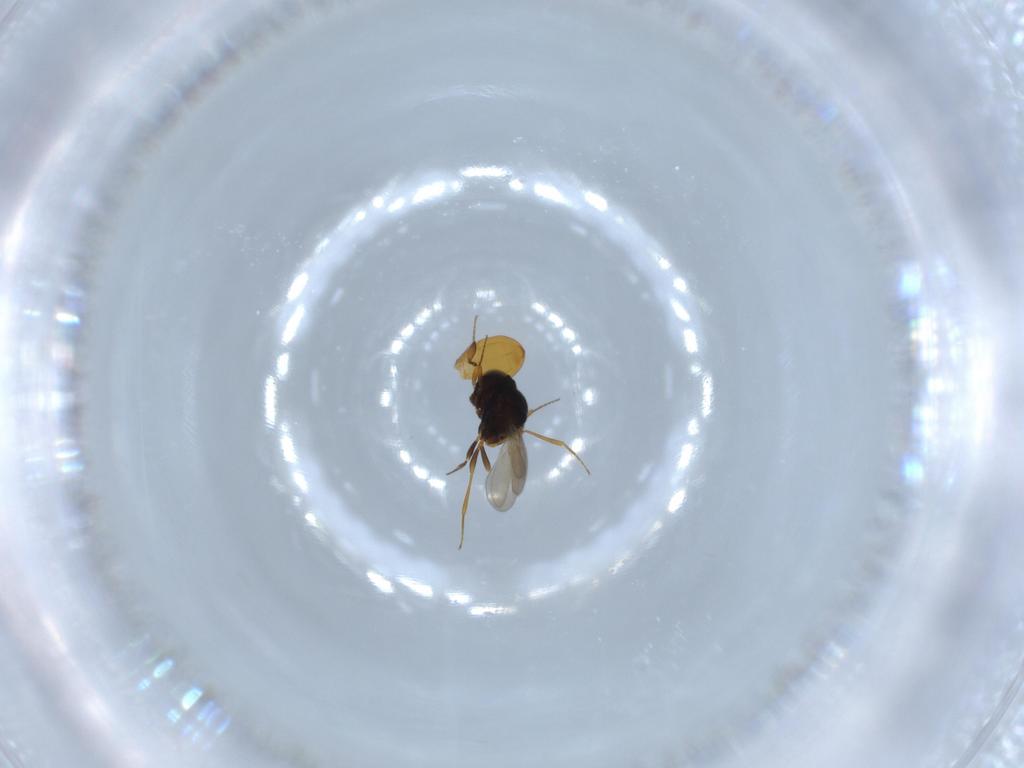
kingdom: Animalia
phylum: Arthropoda
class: Insecta
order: Hymenoptera
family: Scelionidae
